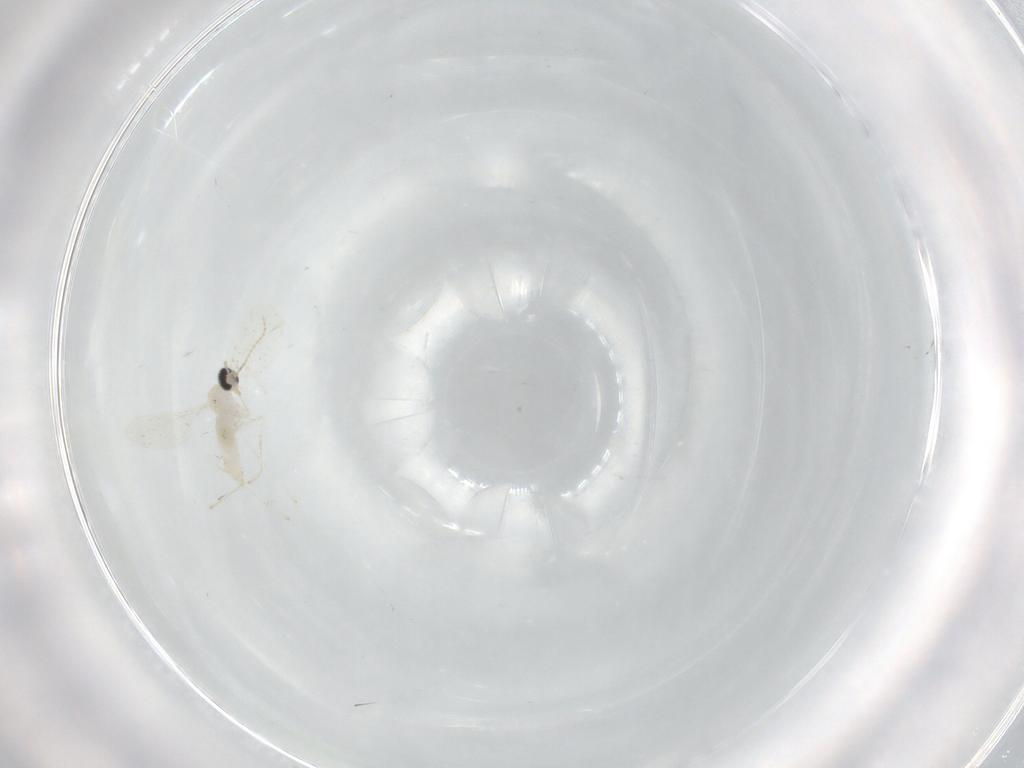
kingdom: Animalia
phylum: Arthropoda
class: Insecta
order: Diptera
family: Cecidomyiidae
